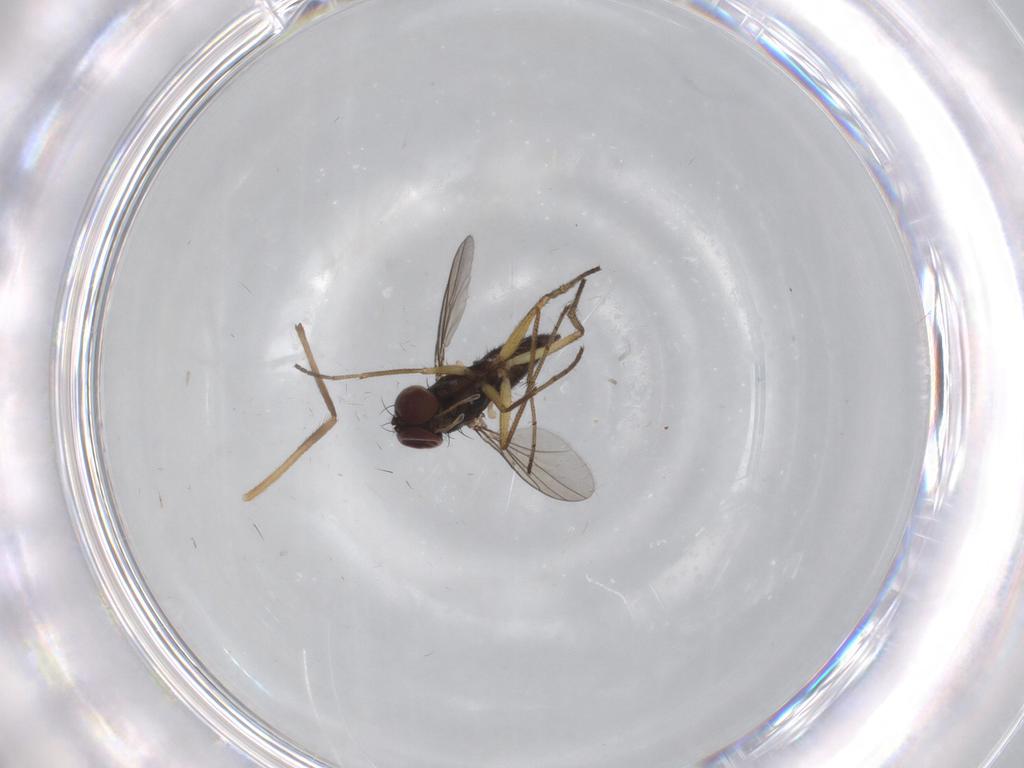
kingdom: Animalia
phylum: Arthropoda
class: Insecta
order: Diptera
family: Dolichopodidae
